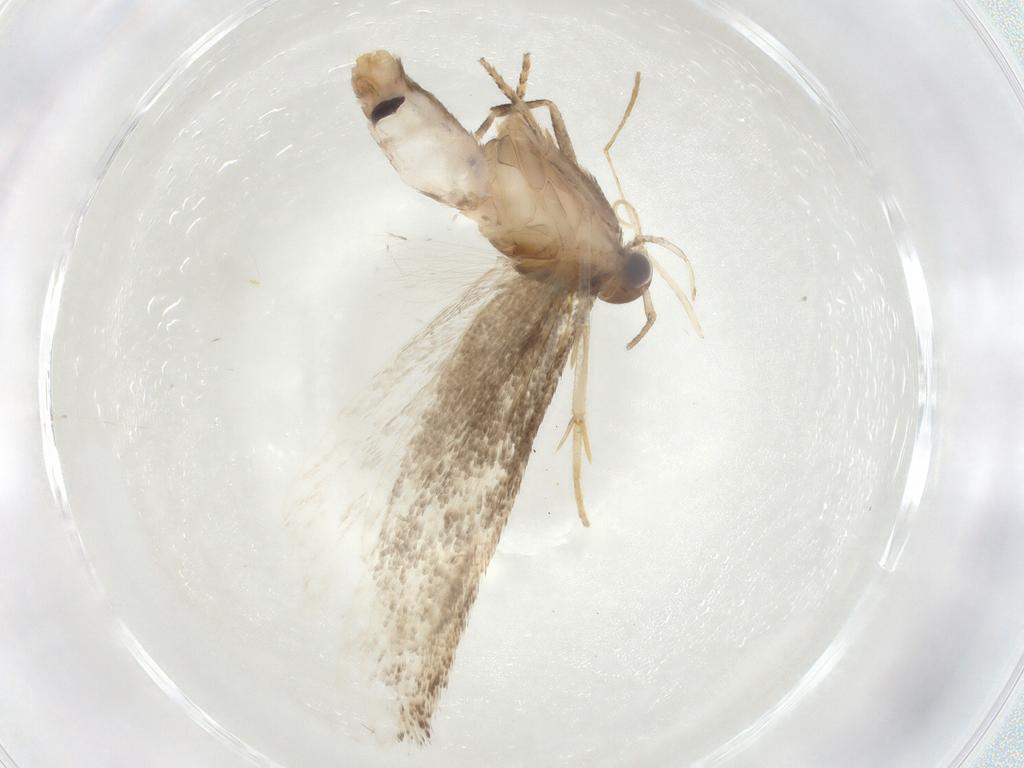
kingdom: Animalia
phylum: Arthropoda
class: Insecta
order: Lepidoptera
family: Gelechiidae
